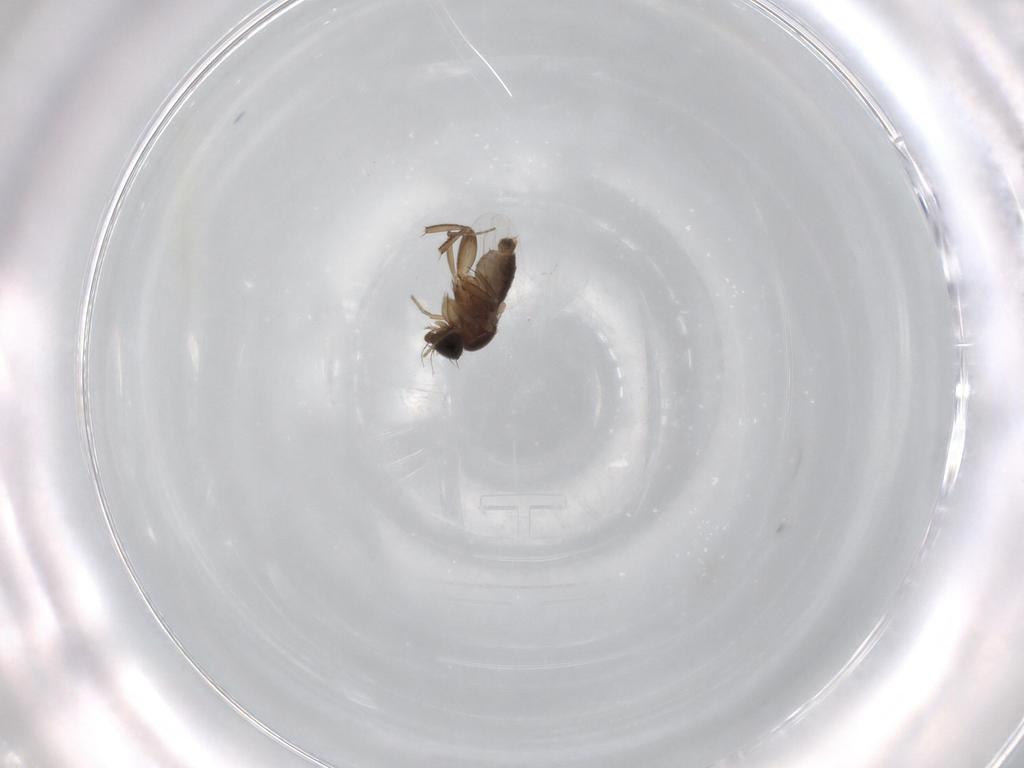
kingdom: Animalia
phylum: Arthropoda
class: Insecta
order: Diptera
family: Phoridae
